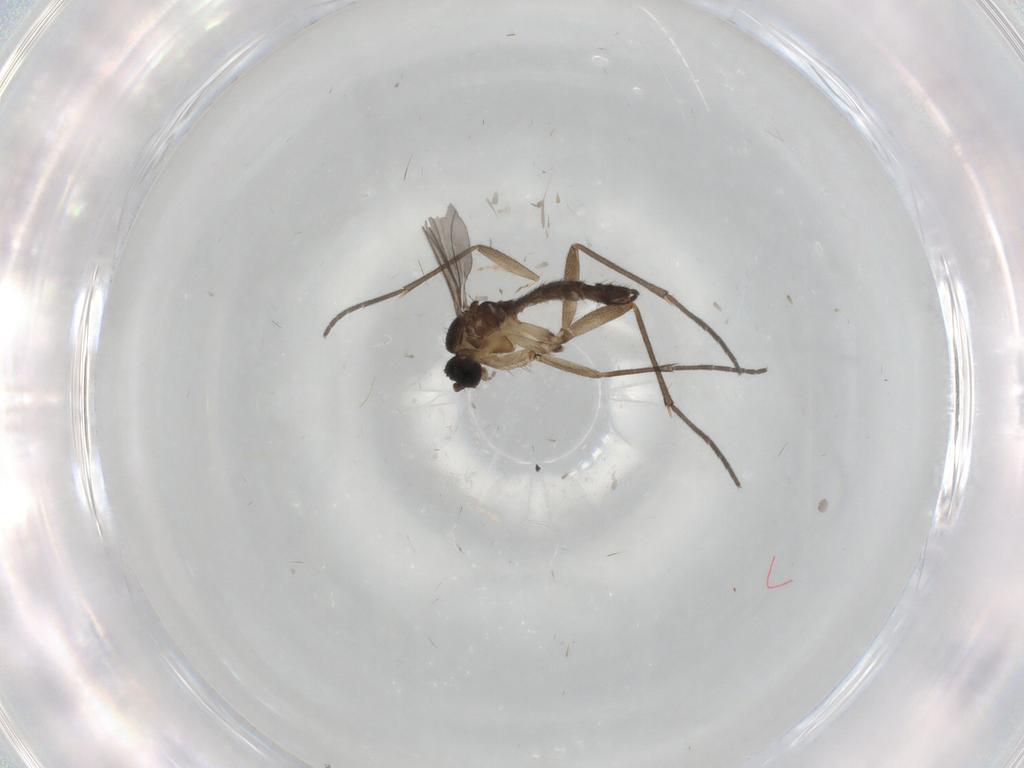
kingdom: Animalia
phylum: Arthropoda
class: Insecta
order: Diptera
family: Sciaridae
